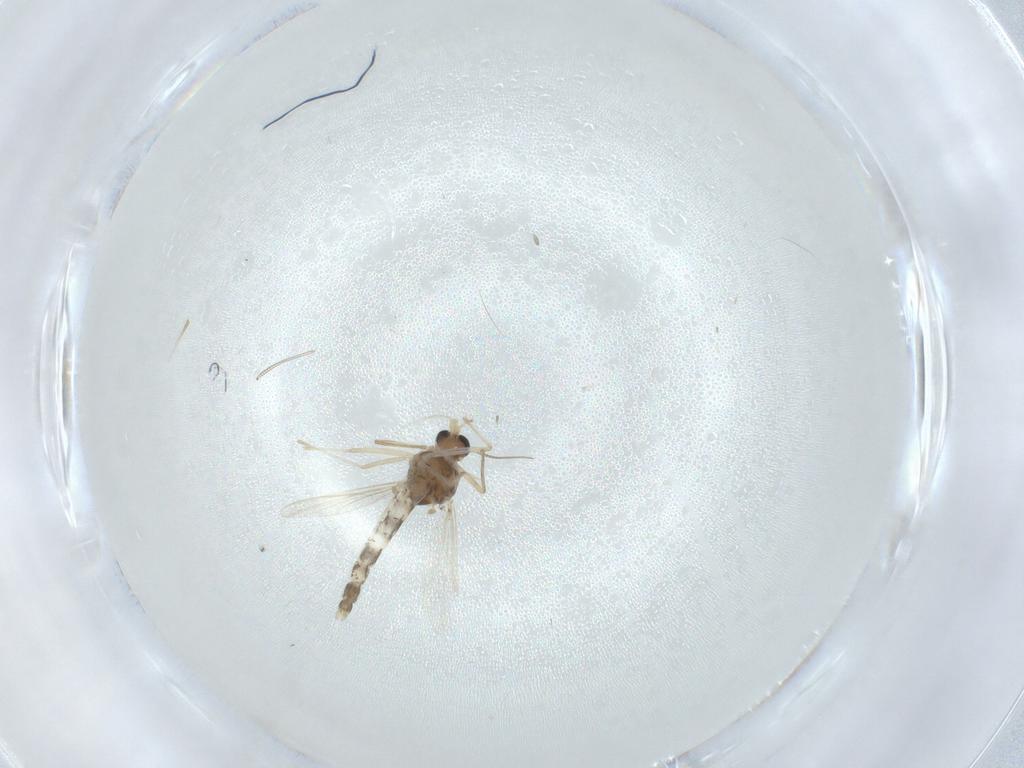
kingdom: Animalia
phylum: Arthropoda
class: Insecta
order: Diptera
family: Chironomidae
